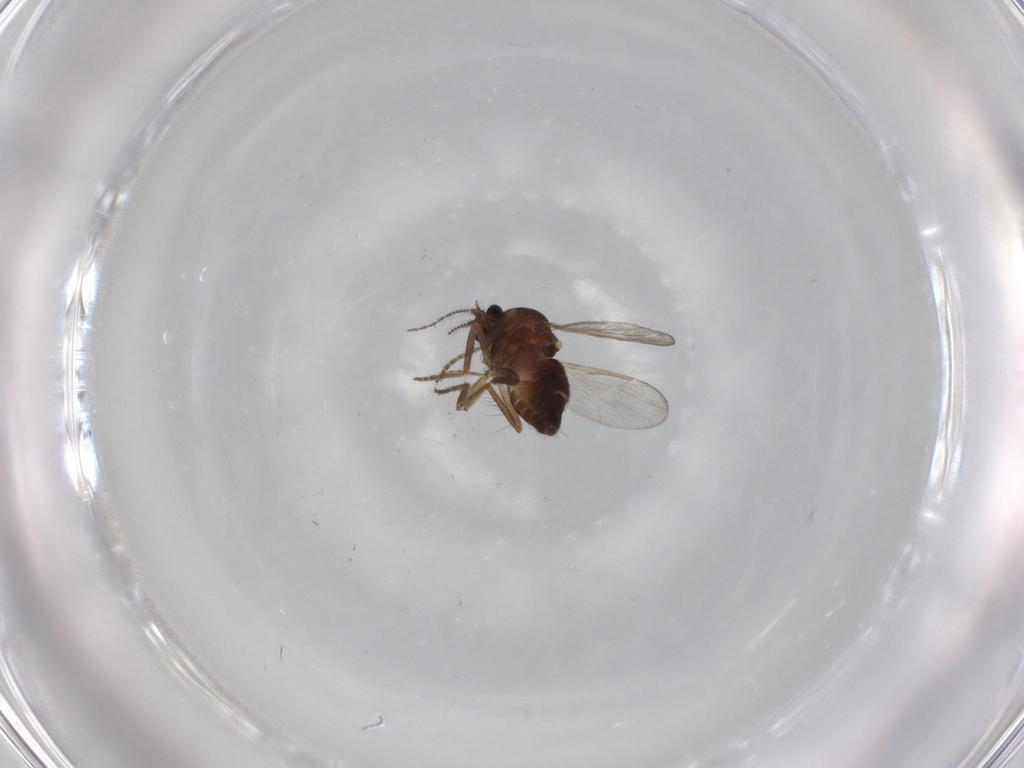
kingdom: Animalia
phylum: Arthropoda
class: Insecta
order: Diptera
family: Ceratopogonidae
